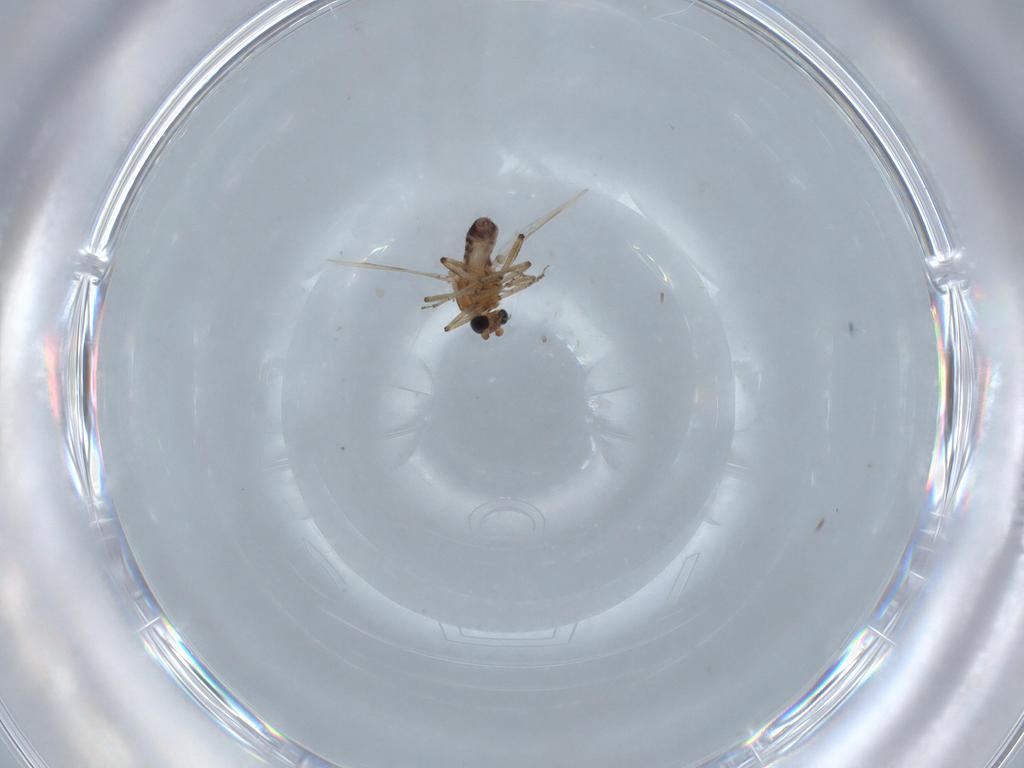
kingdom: Animalia
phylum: Arthropoda
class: Insecta
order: Diptera
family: Ceratopogonidae
